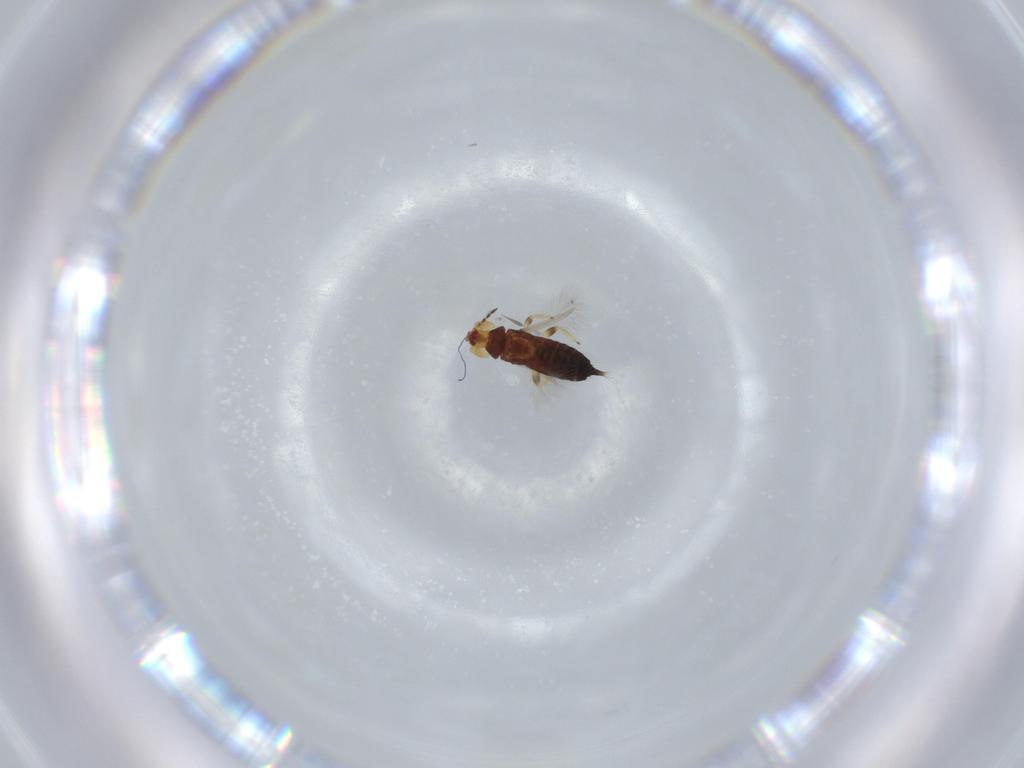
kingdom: Animalia
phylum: Arthropoda
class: Insecta
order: Thysanoptera
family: Phlaeothripidae
